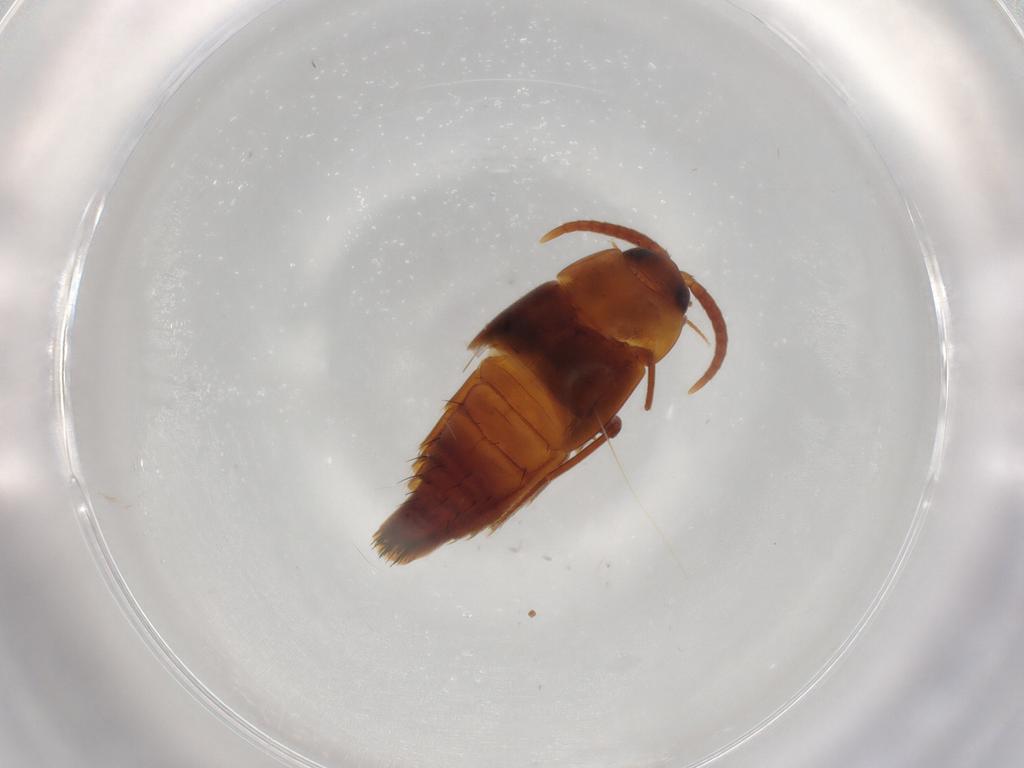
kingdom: Animalia
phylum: Arthropoda
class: Insecta
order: Coleoptera
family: Staphylinidae
